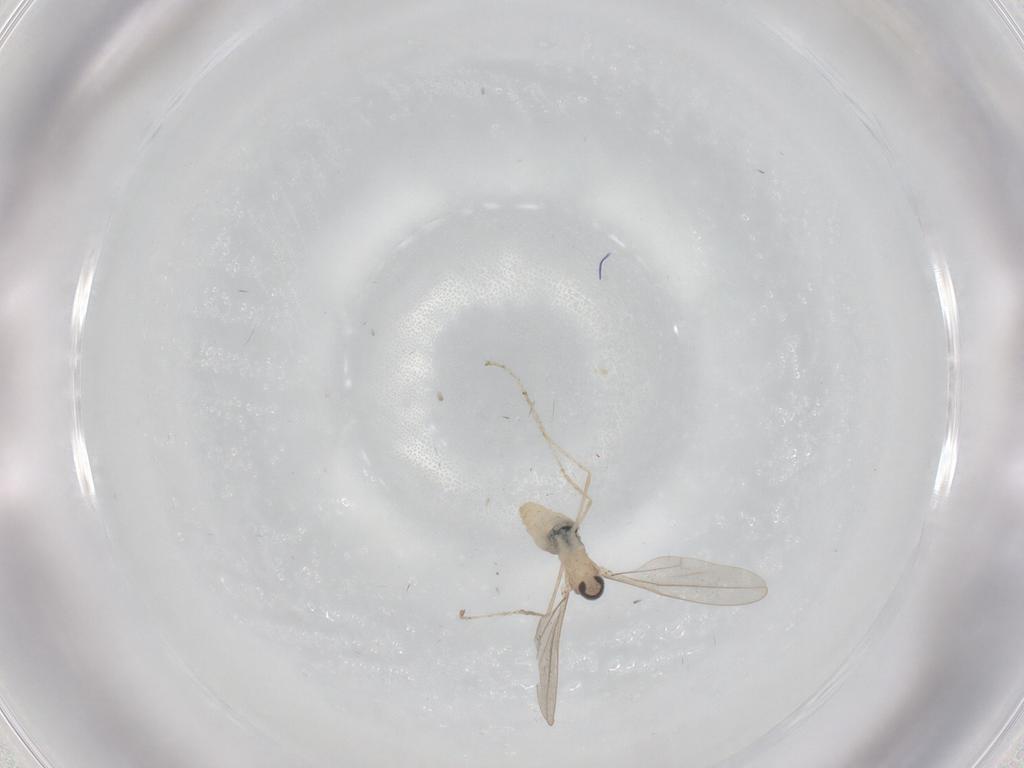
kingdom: Animalia
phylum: Arthropoda
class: Insecta
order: Diptera
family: Cecidomyiidae
